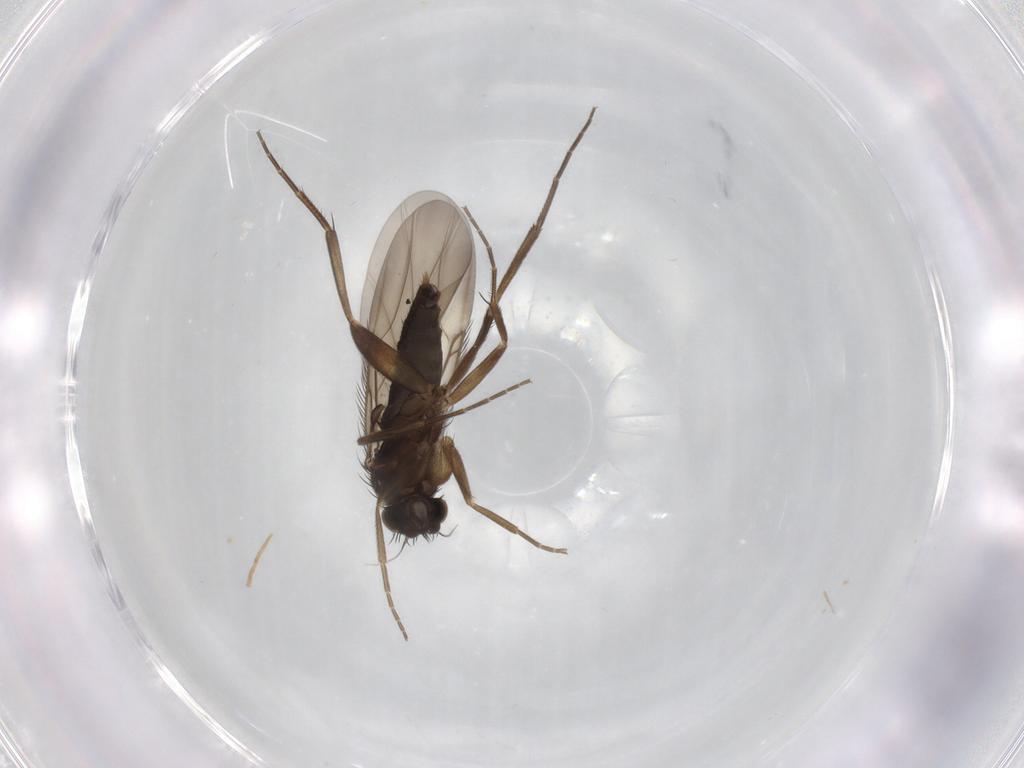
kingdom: Animalia
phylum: Arthropoda
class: Insecta
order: Diptera
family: Phoridae
